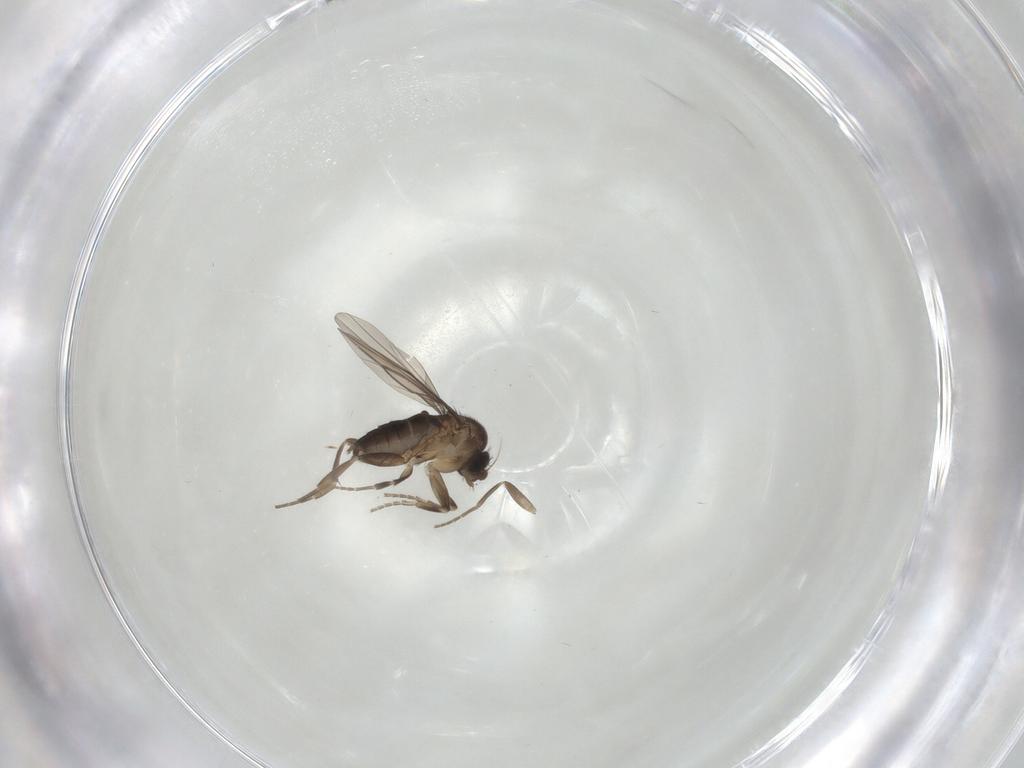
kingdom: Animalia
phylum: Arthropoda
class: Insecta
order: Diptera
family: Phoridae
